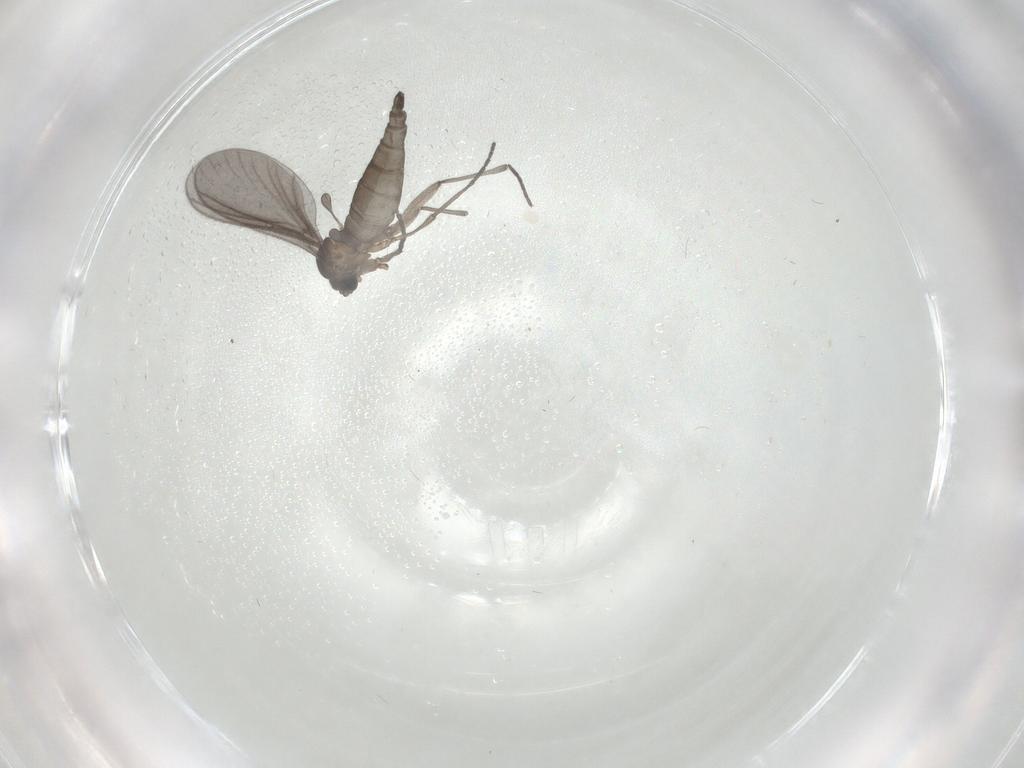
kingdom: Animalia
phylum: Arthropoda
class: Insecta
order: Diptera
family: Sciaridae
